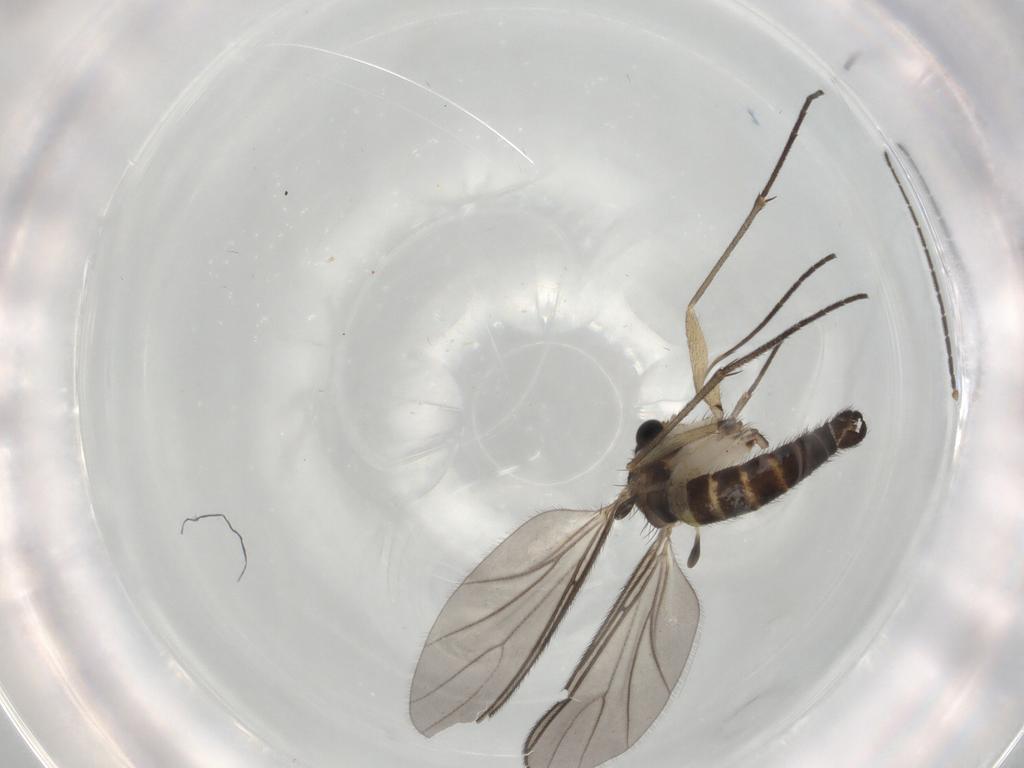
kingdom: Animalia
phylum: Arthropoda
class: Insecta
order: Diptera
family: Sciaridae
